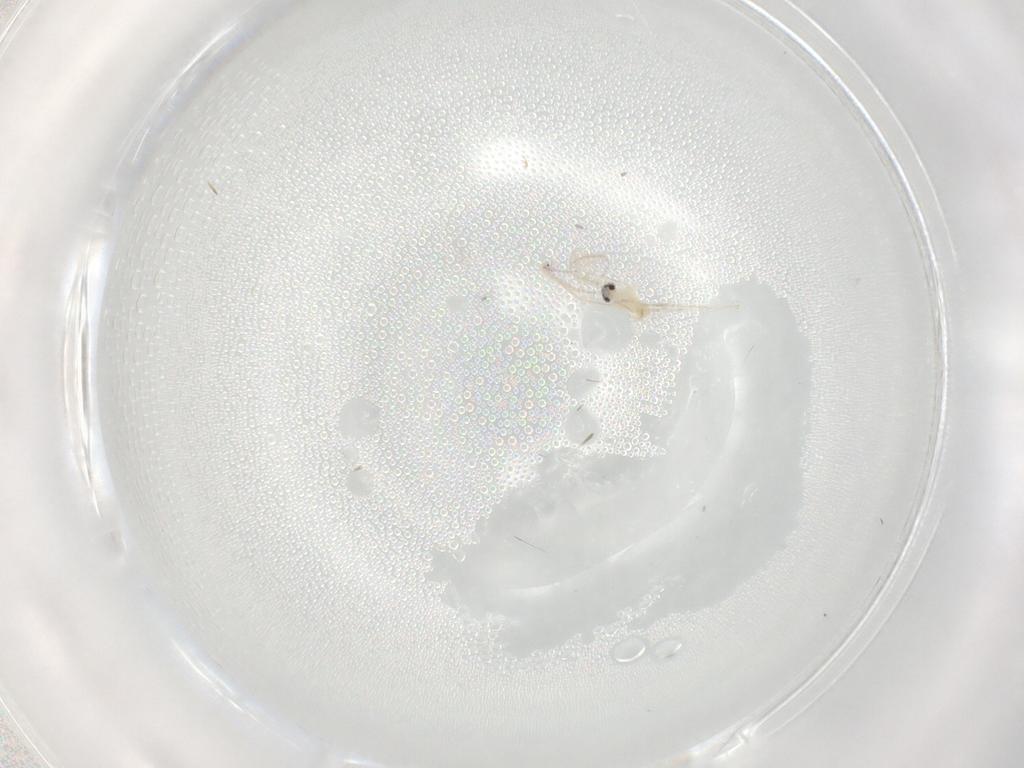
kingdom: Animalia
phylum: Arthropoda
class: Insecta
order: Diptera
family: Cecidomyiidae
